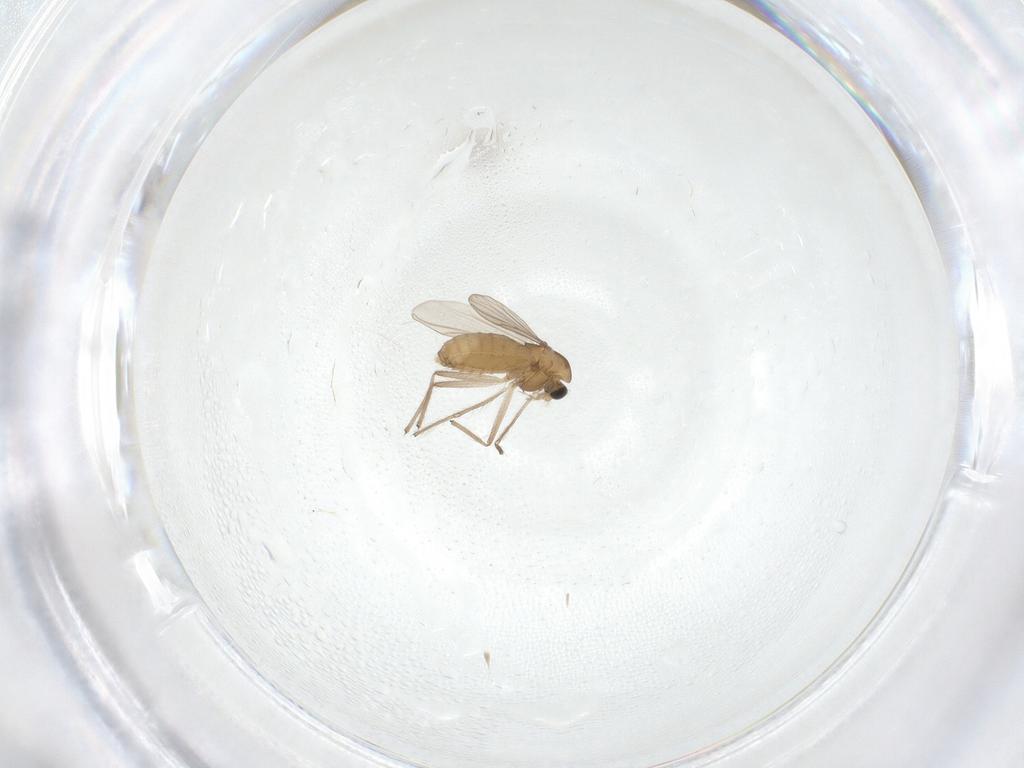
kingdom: Animalia
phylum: Arthropoda
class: Insecta
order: Diptera
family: Chironomidae
